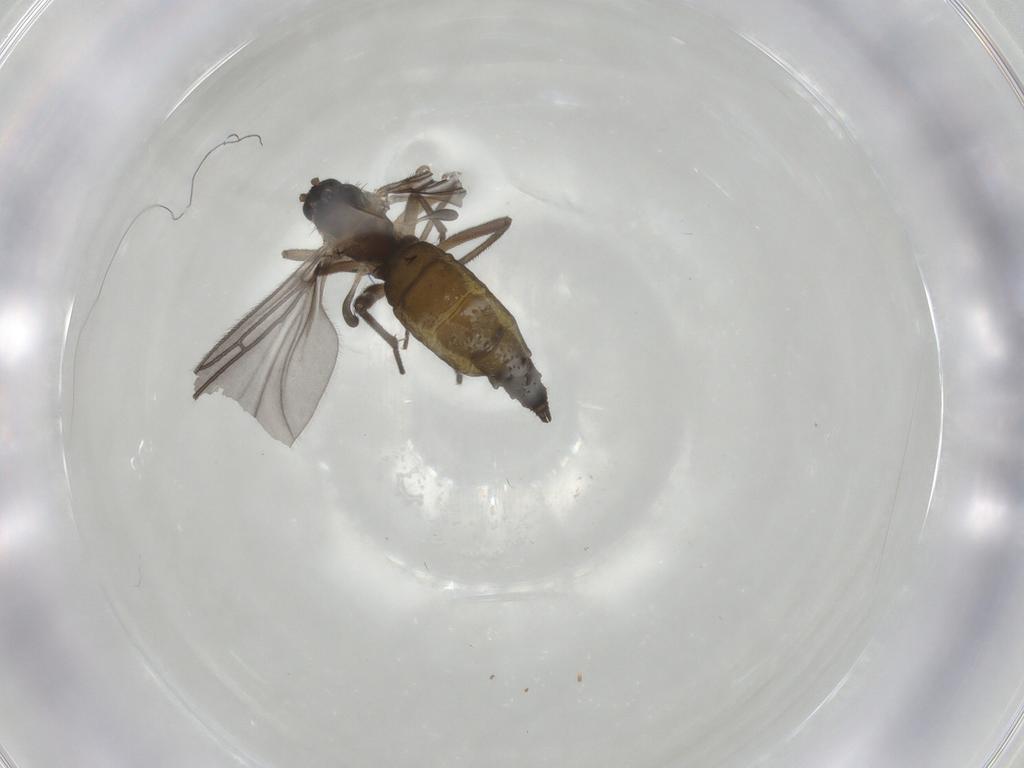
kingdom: Animalia
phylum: Arthropoda
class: Insecta
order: Diptera
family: Sciaridae
